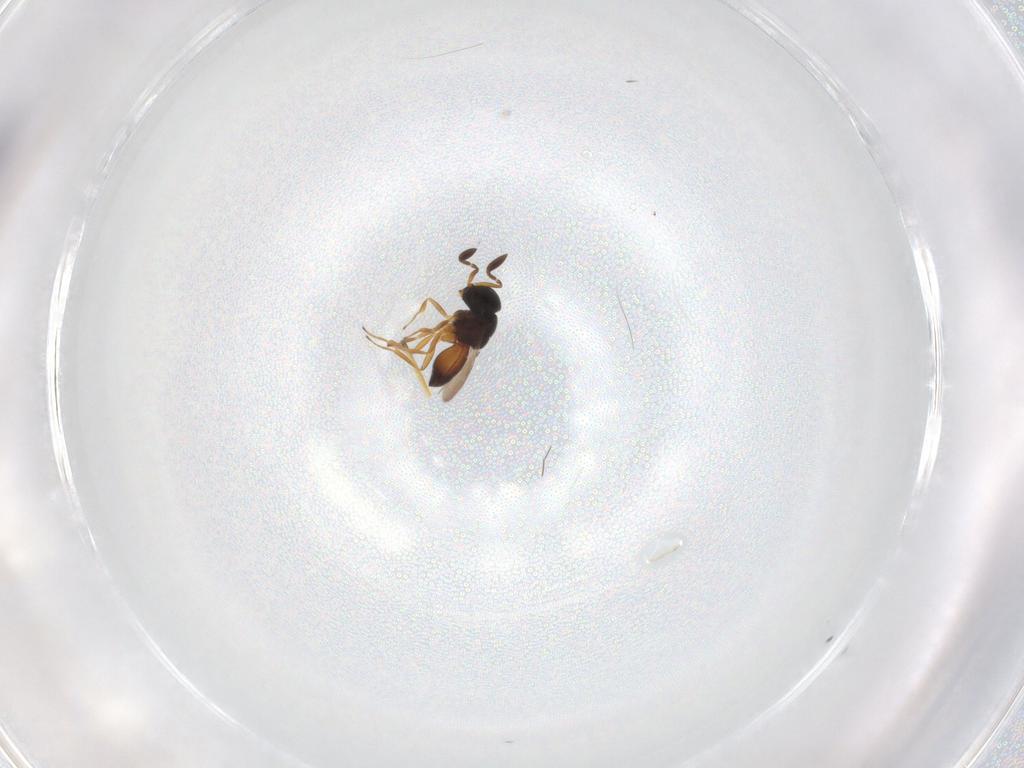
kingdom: Animalia
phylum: Arthropoda
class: Insecta
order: Hymenoptera
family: Scelionidae
